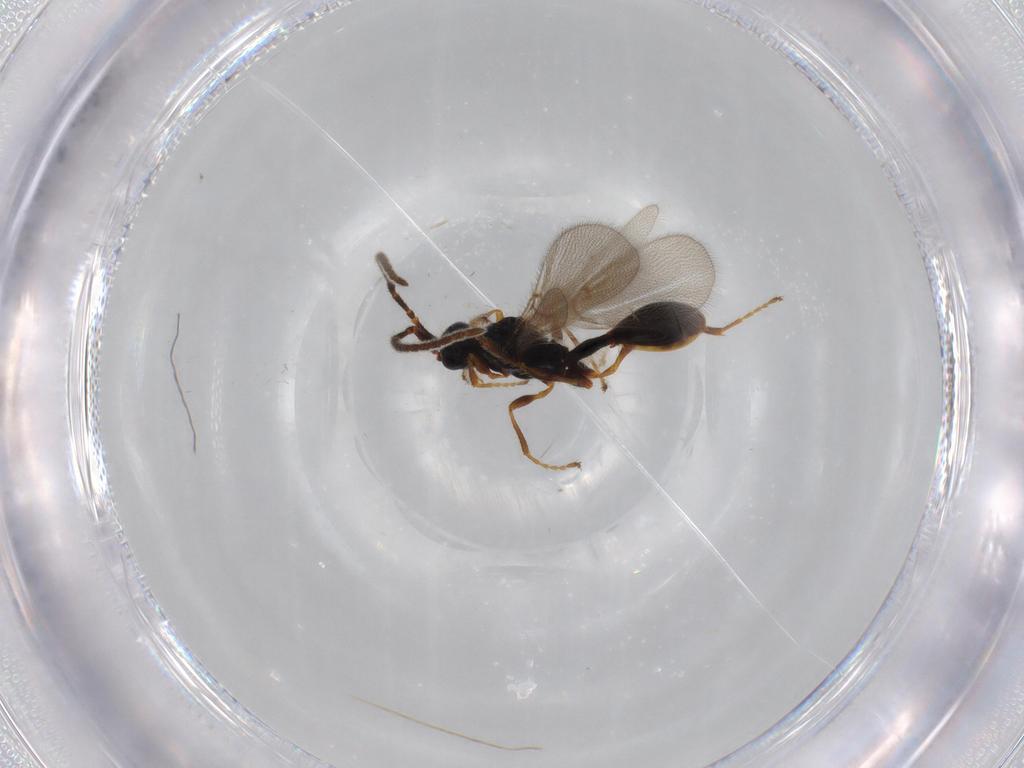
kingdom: Animalia
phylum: Arthropoda
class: Insecta
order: Hymenoptera
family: Diapriidae
